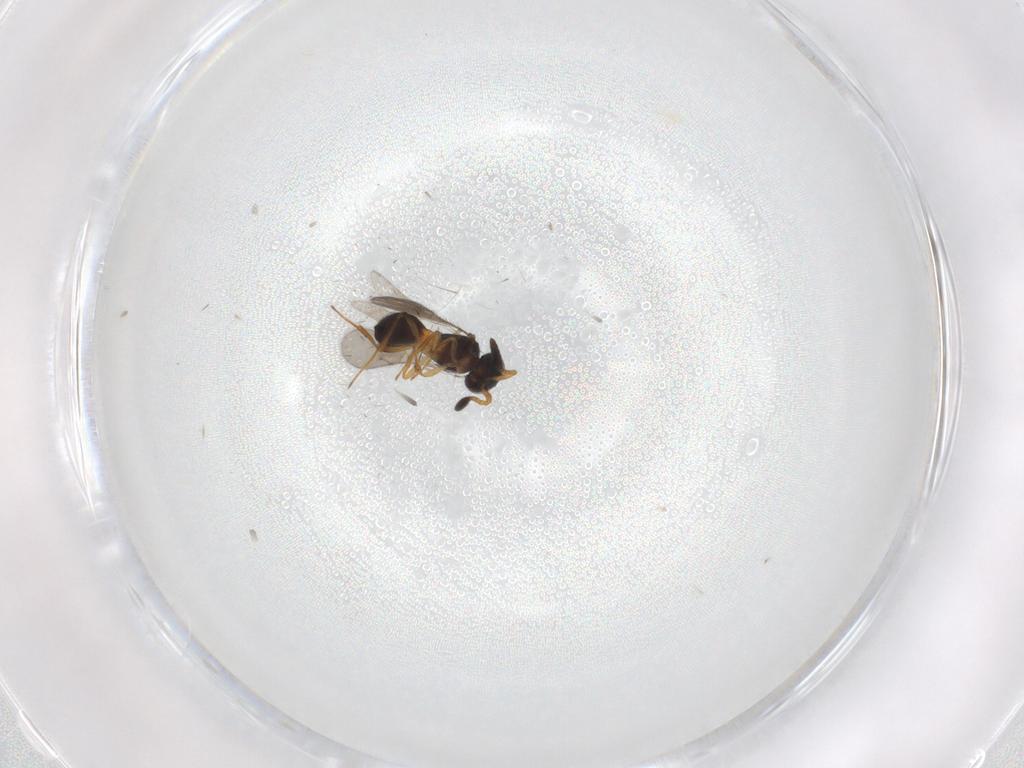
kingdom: Animalia
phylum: Arthropoda
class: Insecta
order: Hymenoptera
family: Scelionidae
